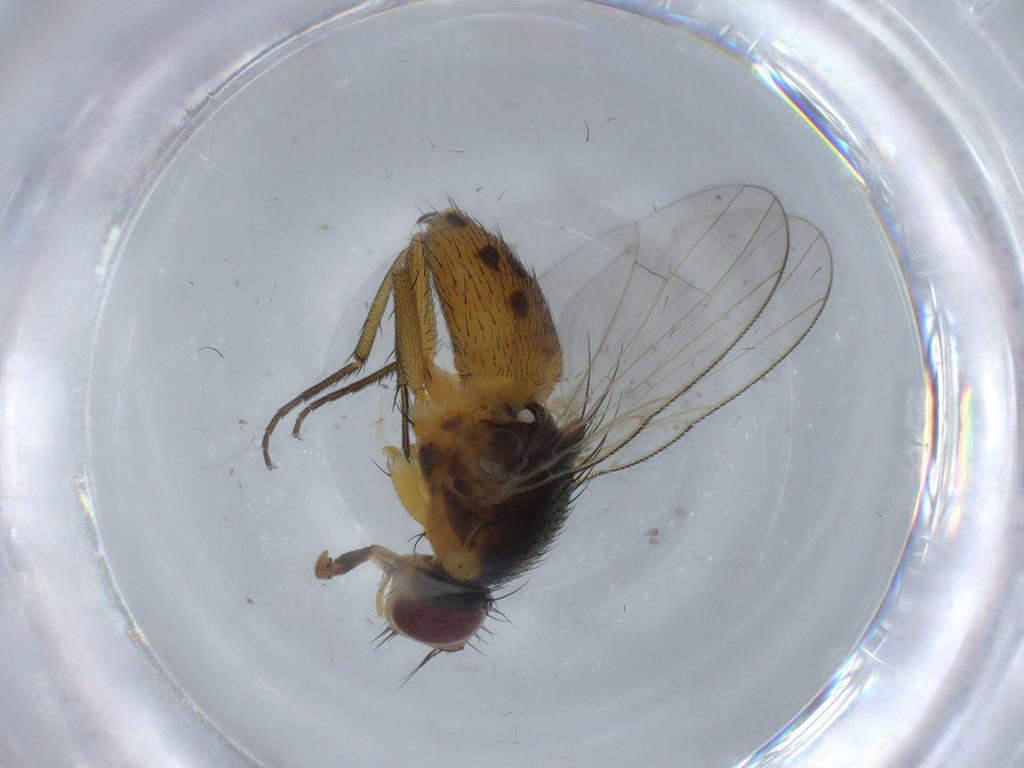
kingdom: Animalia
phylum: Arthropoda
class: Insecta
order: Diptera
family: Muscidae
